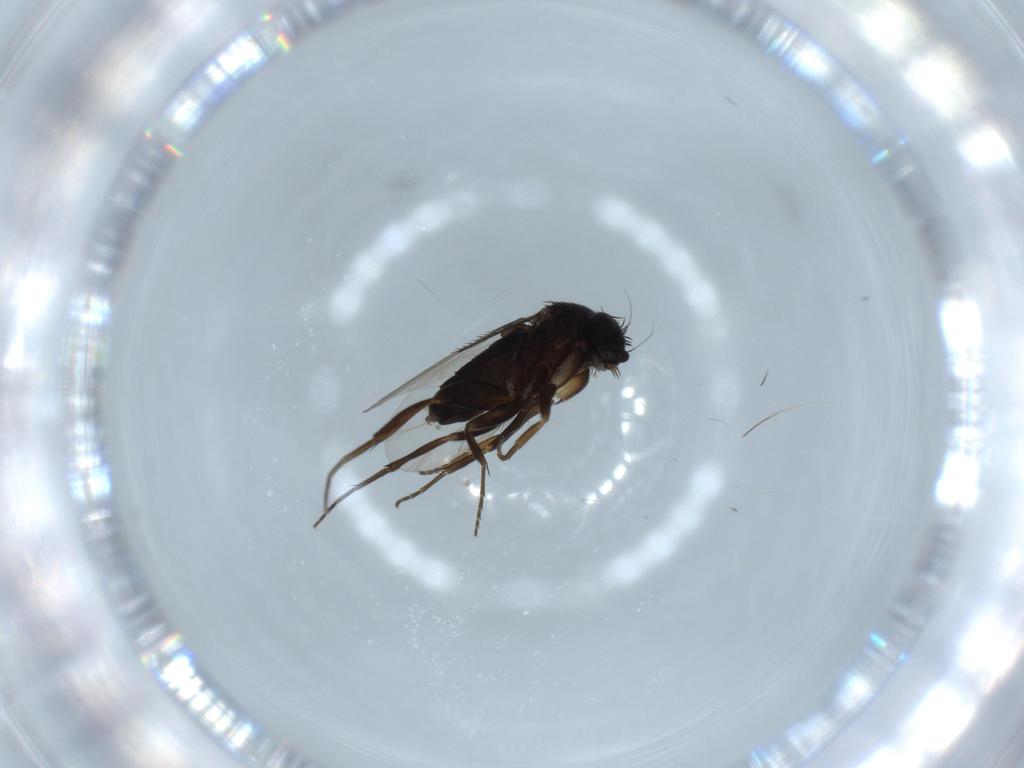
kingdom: Animalia
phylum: Arthropoda
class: Insecta
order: Diptera
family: Phoridae
